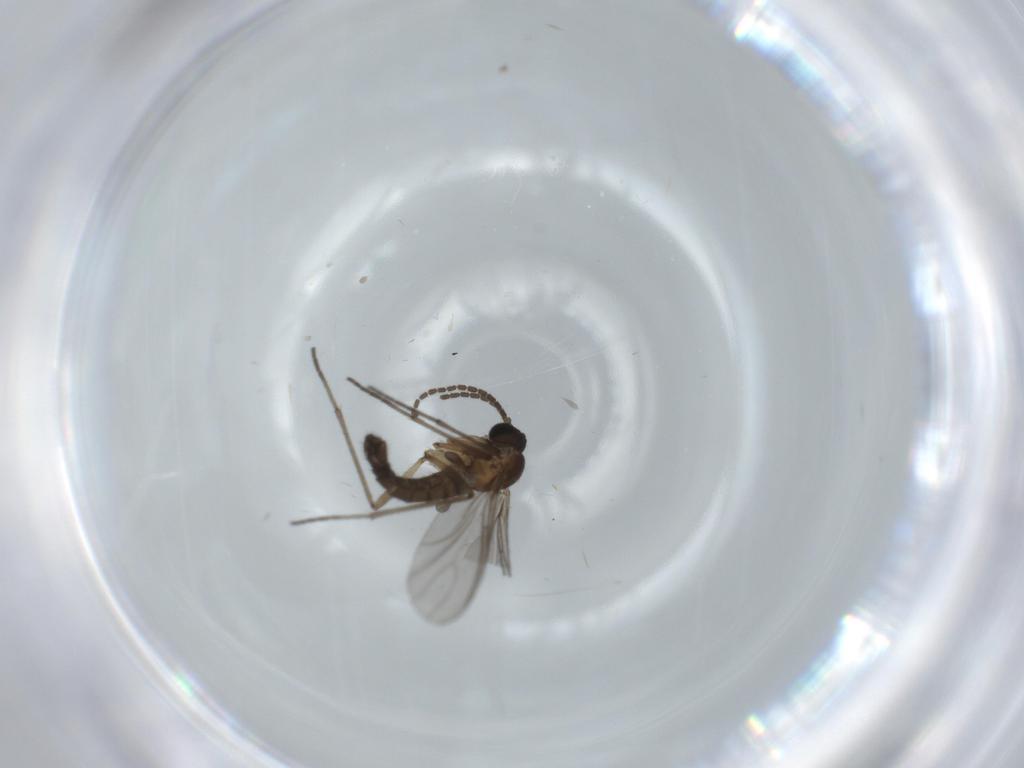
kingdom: Animalia
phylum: Arthropoda
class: Insecta
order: Diptera
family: Sciaridae
